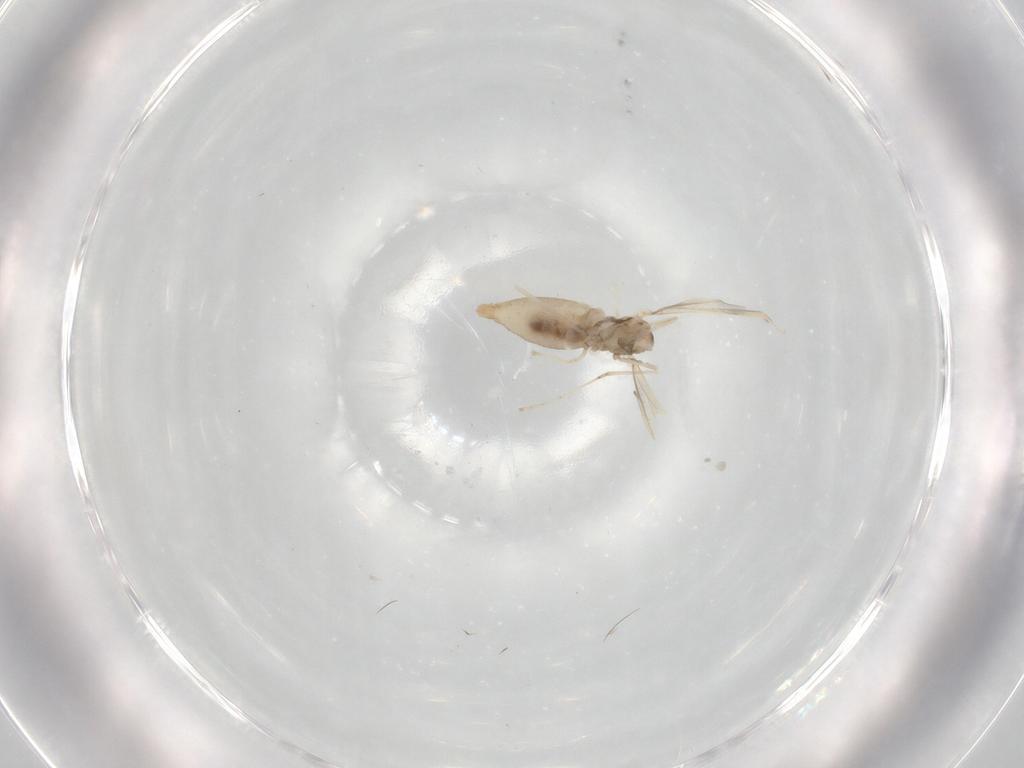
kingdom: Animalia
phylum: Arthropoda
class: Insecta
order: Diptera
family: Cecidomyiidae
